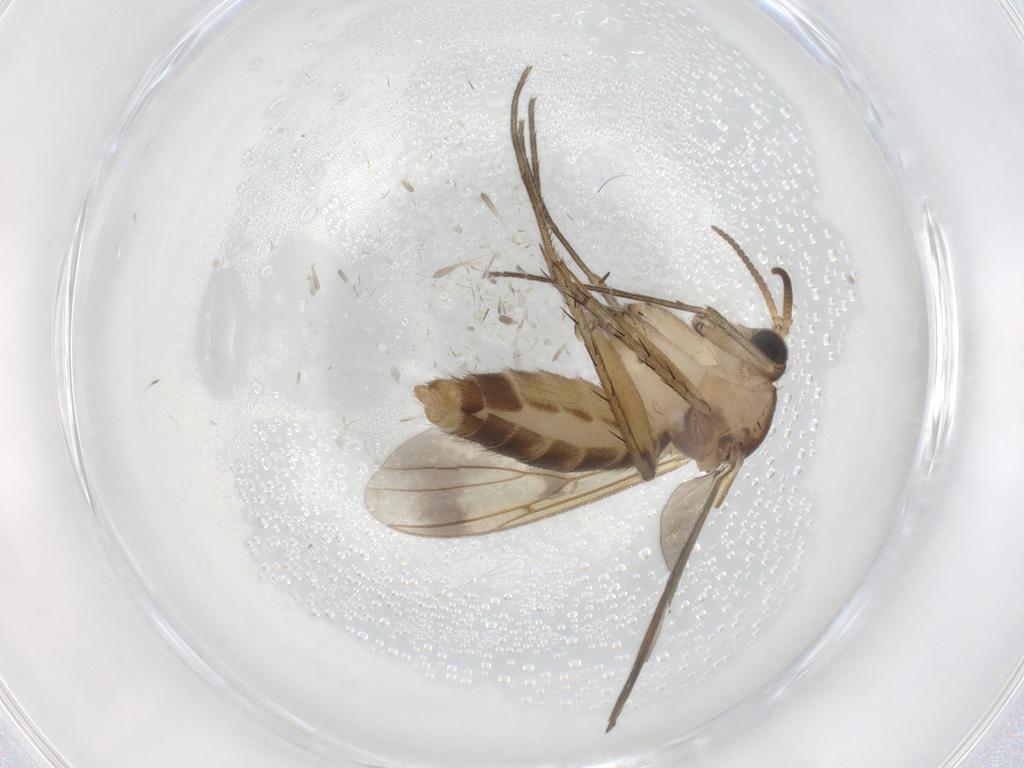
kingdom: Animalia
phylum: Arthropoda
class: Insecta
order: Diptera
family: Mycetophilidae
